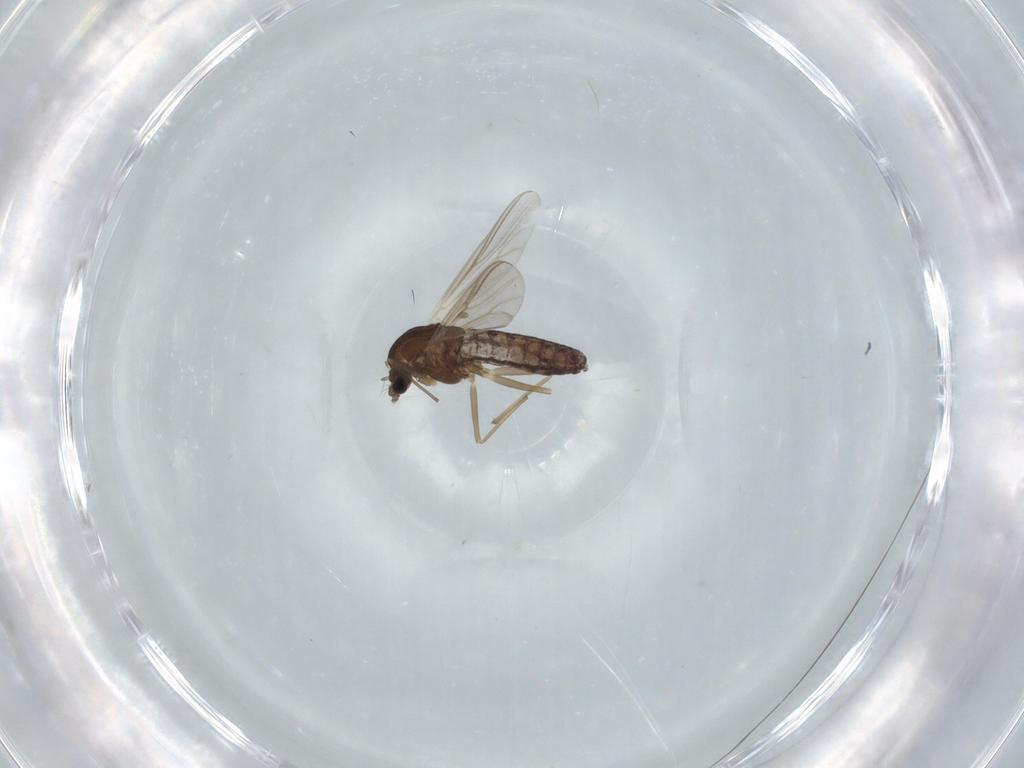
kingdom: Animalia
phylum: Arthropoda
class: Insecta
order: Diptera
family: Chironomidae
